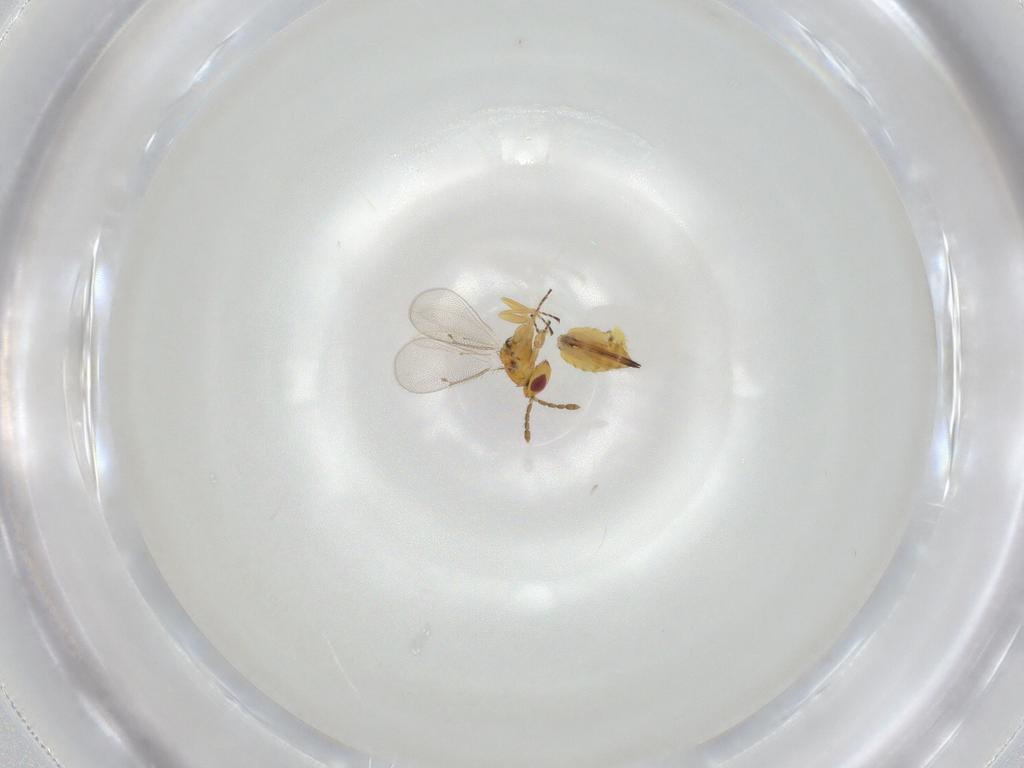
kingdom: Animalia
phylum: Arthropoda
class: Insecta
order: Hymenoptera
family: Eulophidae
